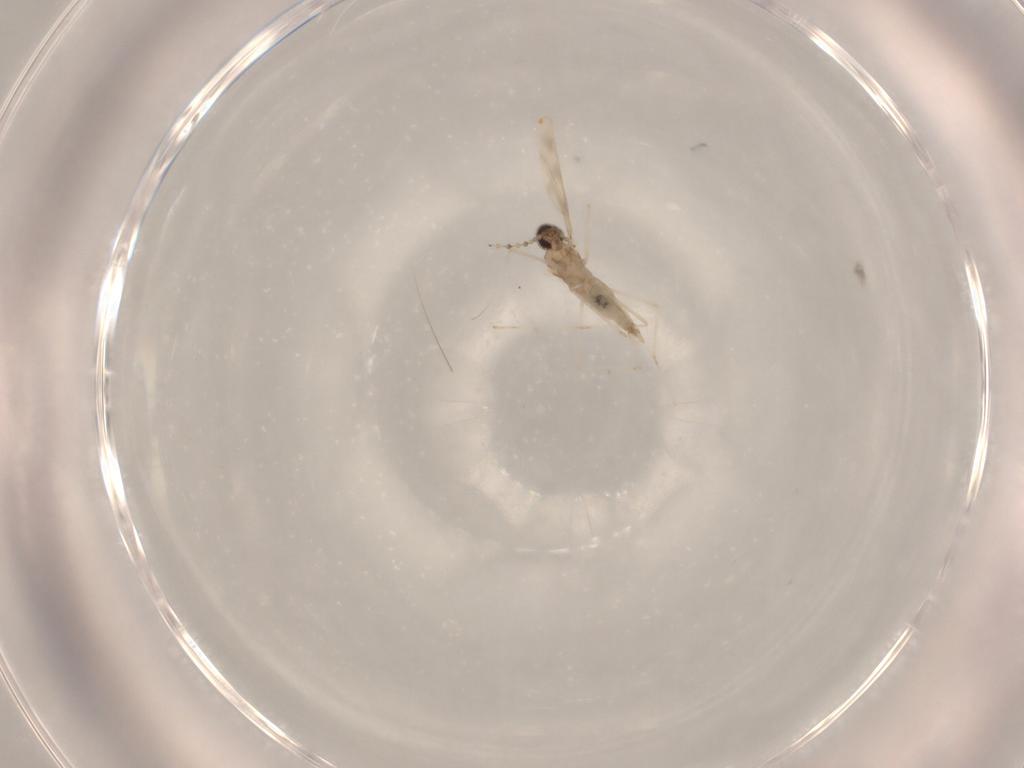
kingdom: Animalia
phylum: Arthropoda
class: Insecta
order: Diptera
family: Cecidomyiidae
